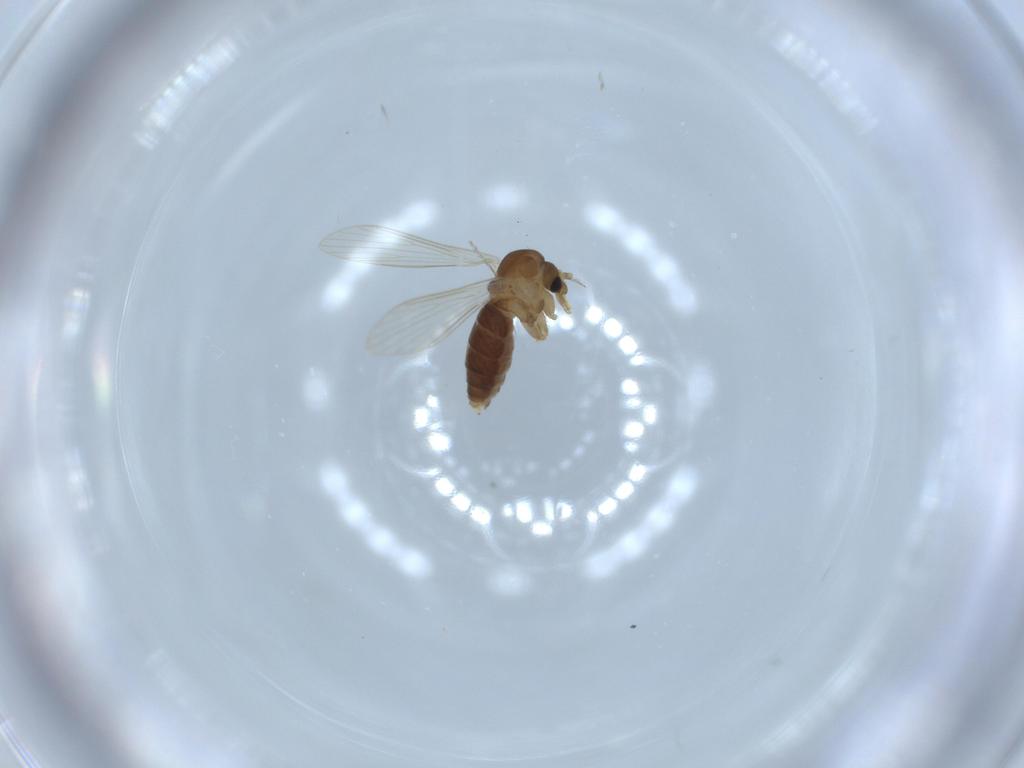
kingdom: Animalia
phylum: Arthropoda
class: Insecta
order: Diptera
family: Psychodidae
